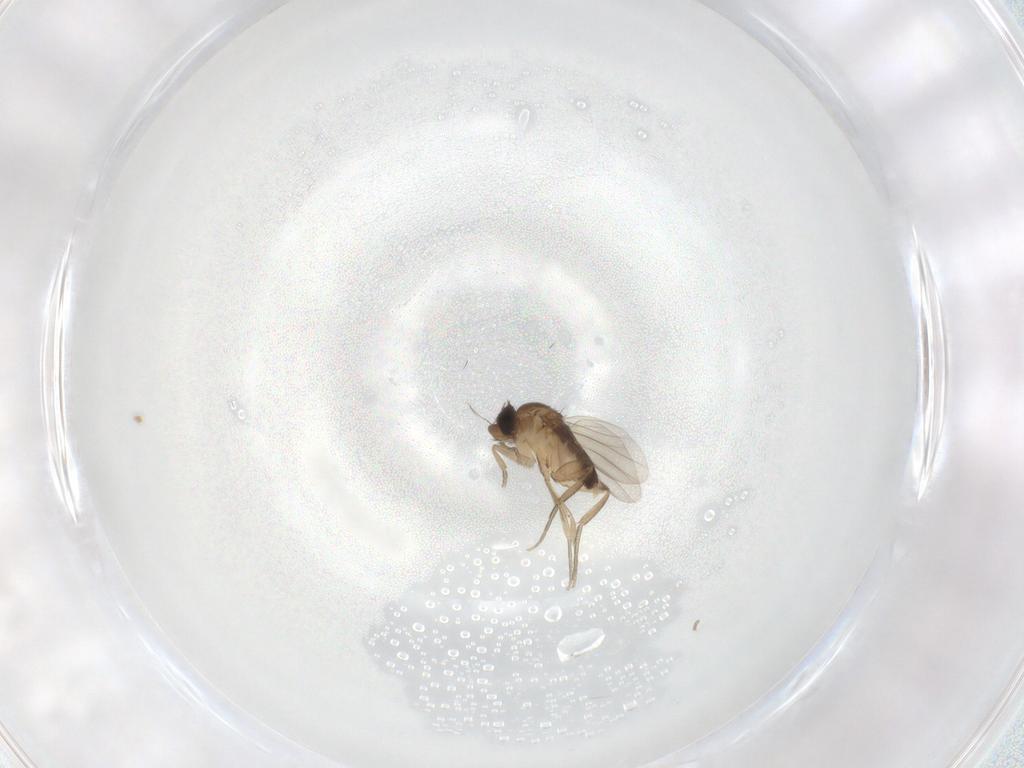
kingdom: Animalia
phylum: Arthropoda
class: Insecta
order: Diptera
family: Phoridae
